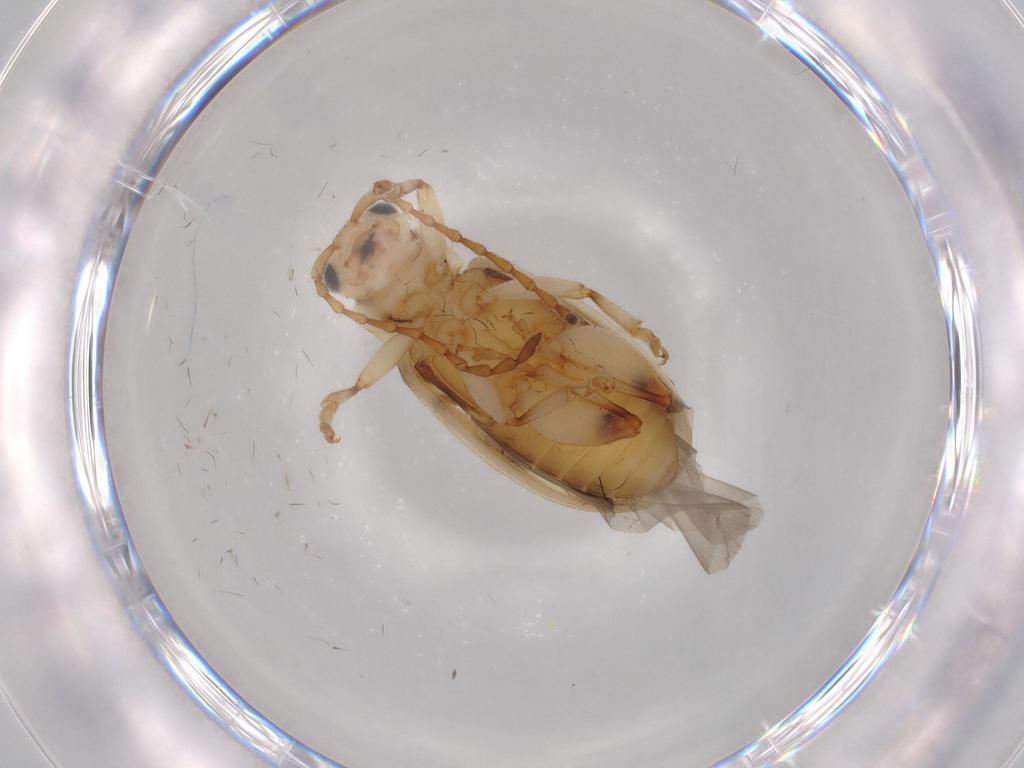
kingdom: Animalia
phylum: Arthropoda
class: Insecta
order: Coleoptera
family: Chrysomelidae
